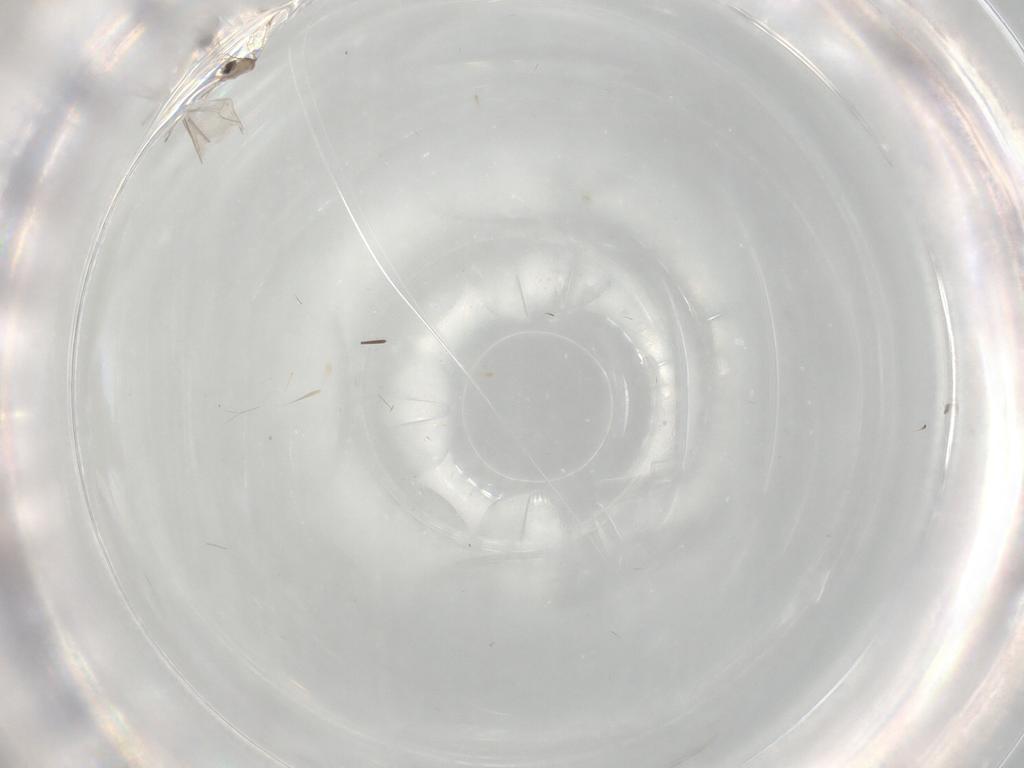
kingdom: Animalia
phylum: Arthropoda
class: Insecta
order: Diptera
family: Cecidomyiidae
